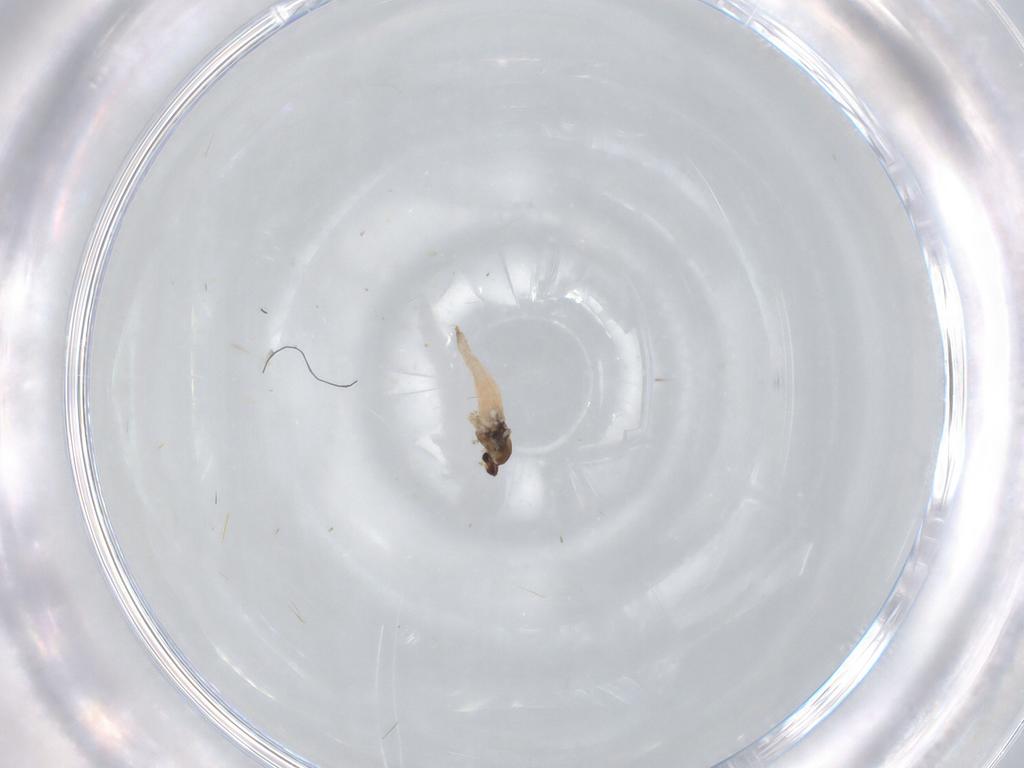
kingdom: Animalia
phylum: Arthropoda
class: Insecta
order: Diptera
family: Cecidomyiidae
